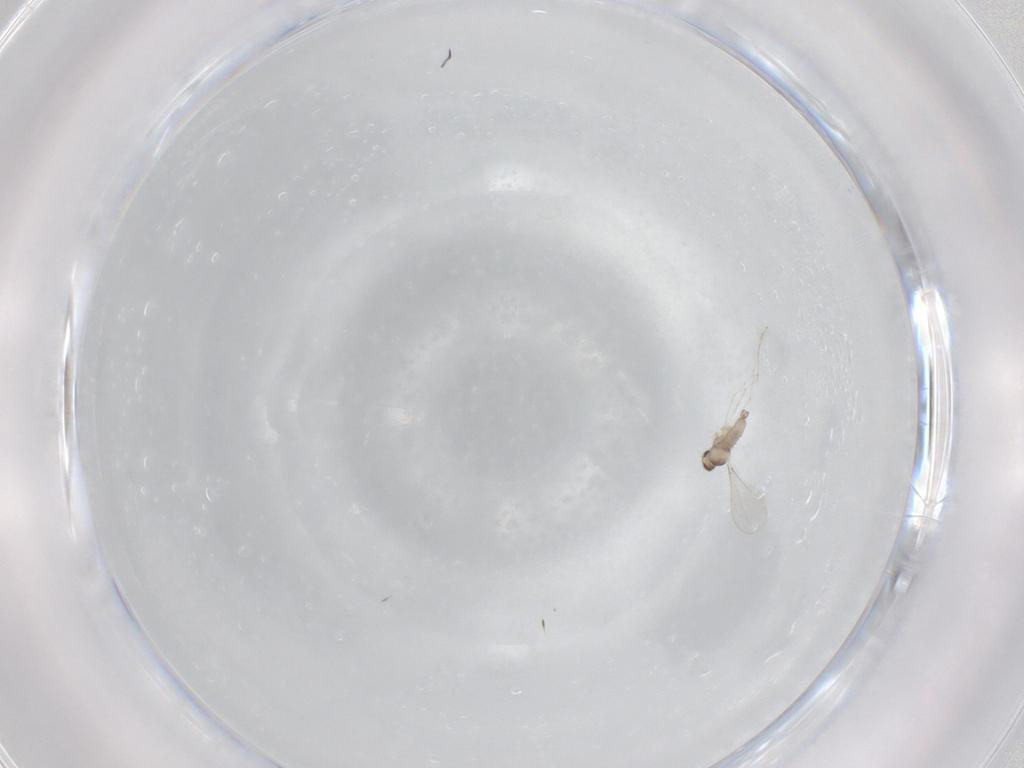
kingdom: Animalia
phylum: Arthropoda
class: Insecta
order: Diptera
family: Cecidomyiidae
